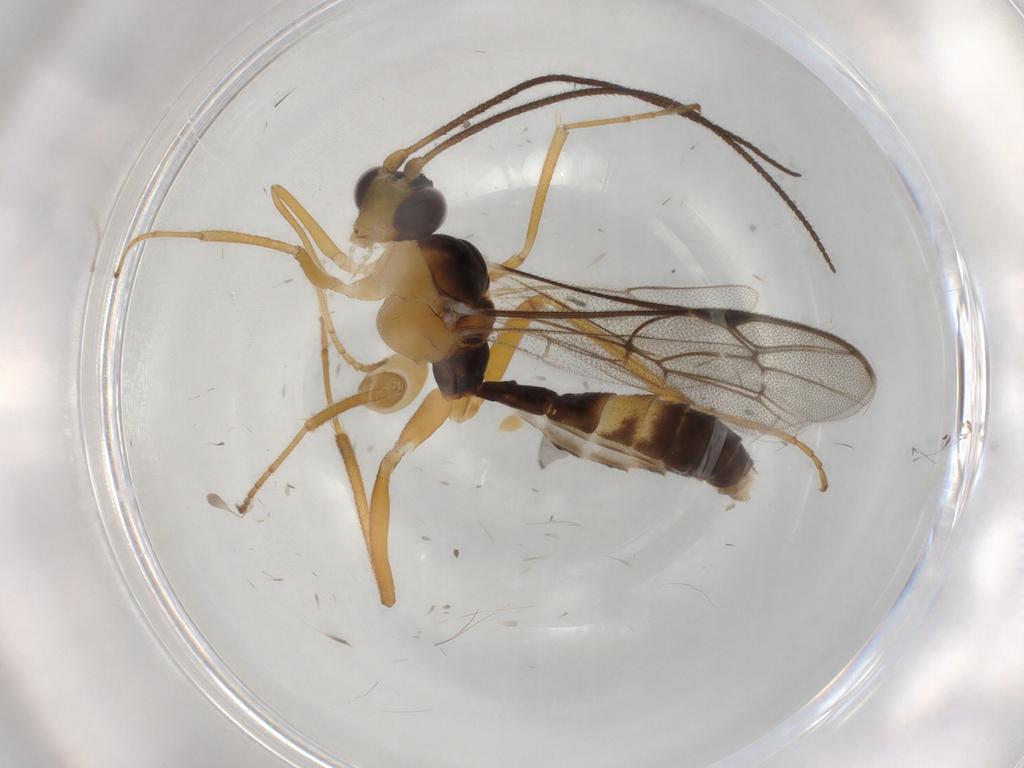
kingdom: Animalia
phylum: Arthropoda
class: Insecta
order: Hymenoptera
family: Ichneumonidae
